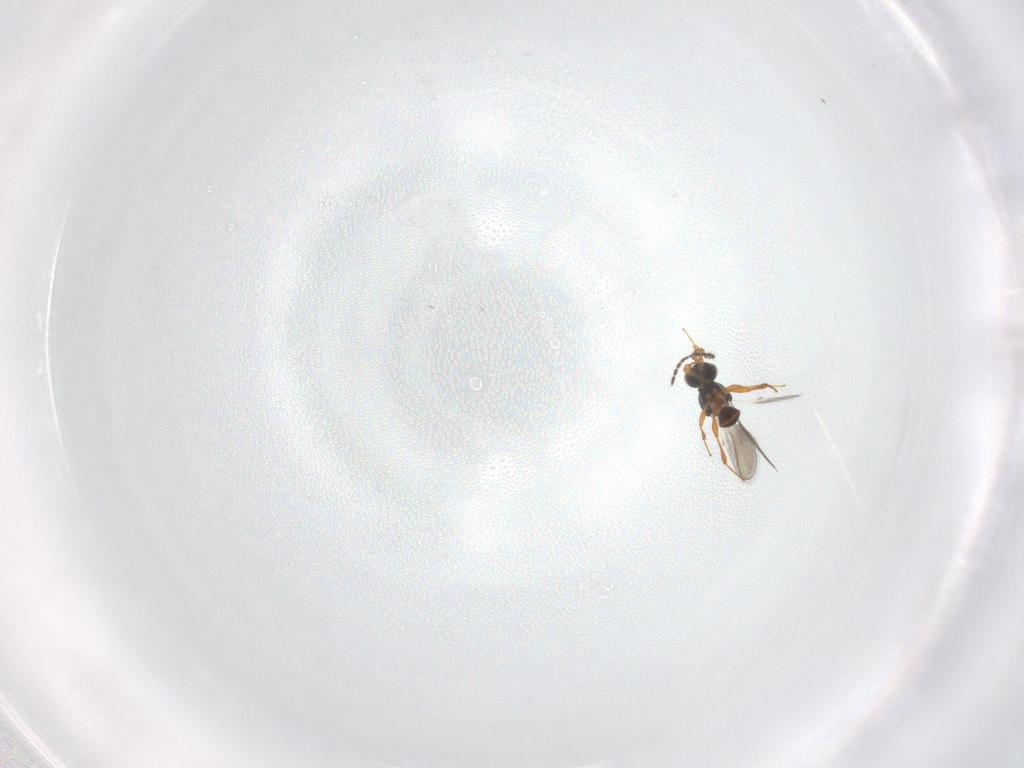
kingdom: Animalia
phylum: Arthropoda
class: Insecta
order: Hymenoptera
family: Platygastridae
